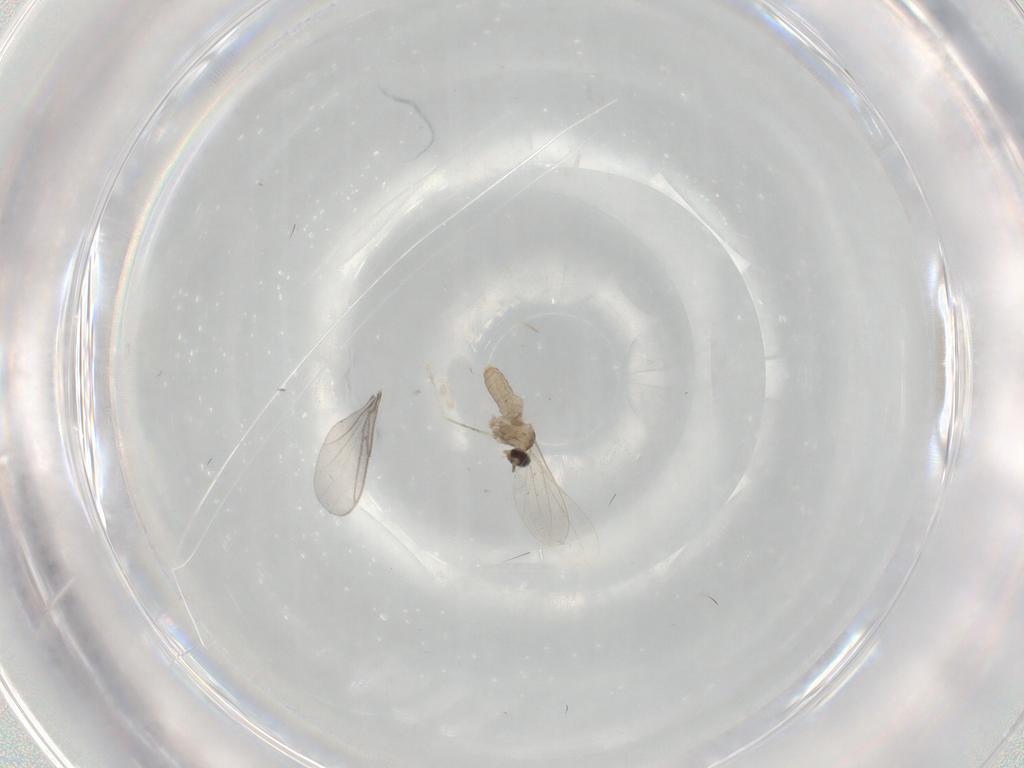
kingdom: Animalia
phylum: Arthropoda
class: Insecta
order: Diptera
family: Cecidomyiidae
